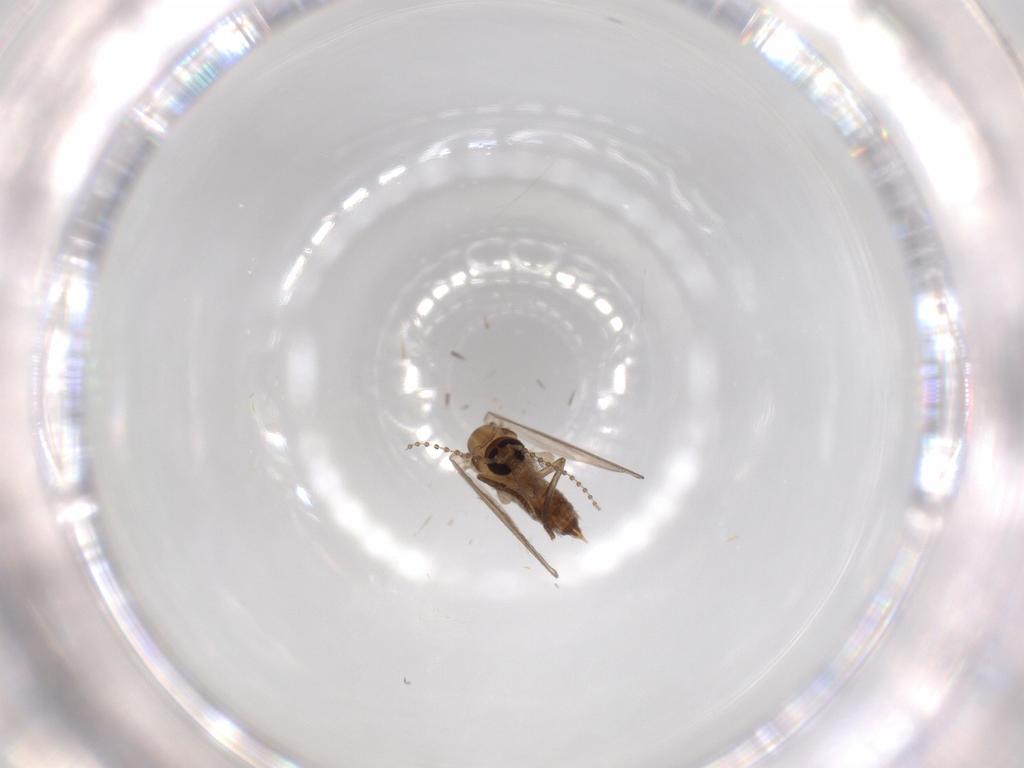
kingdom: Animalia
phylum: Arthropoda
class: Insecta
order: Diptera
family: Psychodidae
